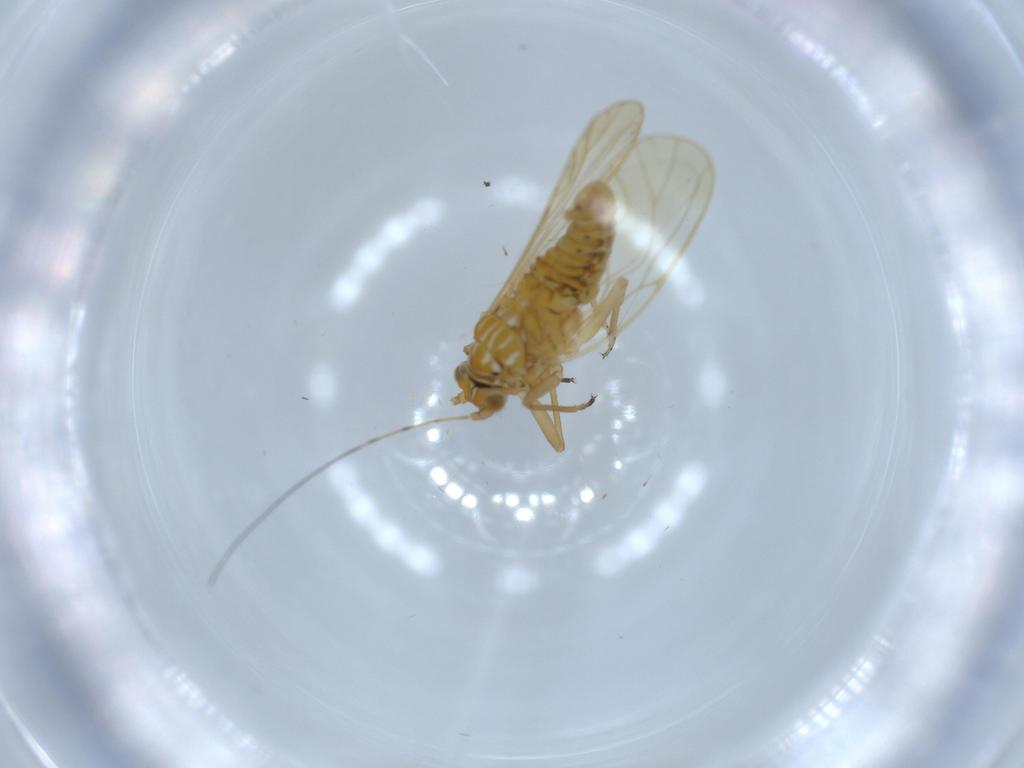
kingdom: Animalia
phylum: Arthropoda
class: Insecta
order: Hemiptera
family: Psyllidae
